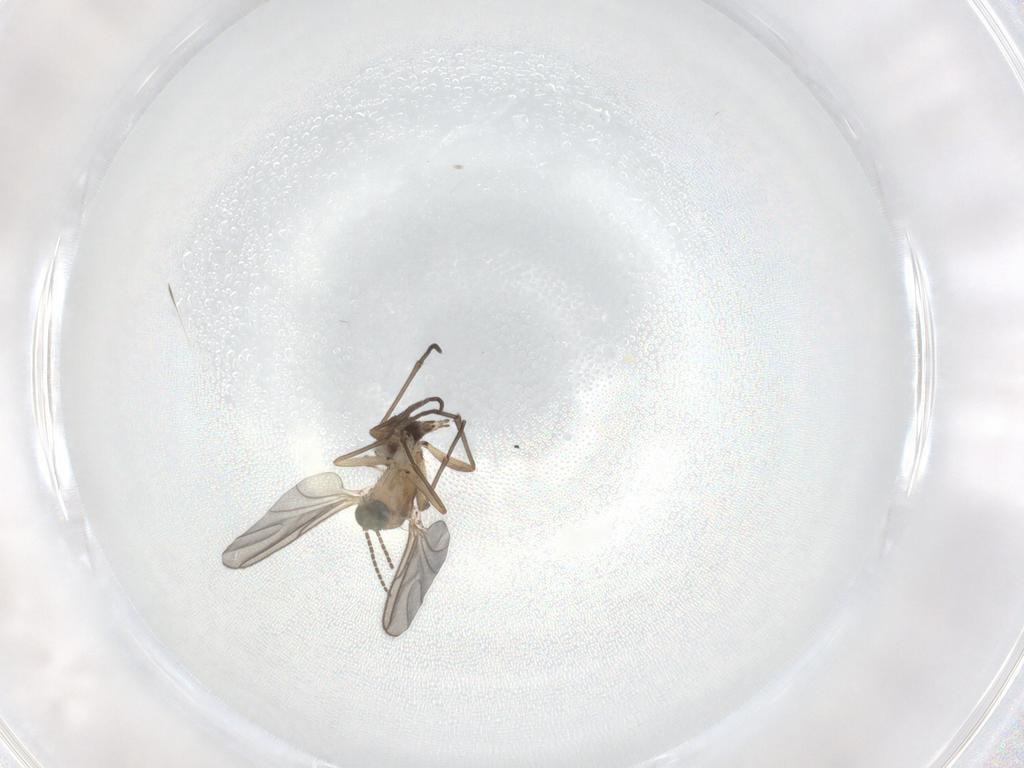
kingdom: Animalia
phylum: Arthropoda
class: Insecta
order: Diptera
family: Sciaridae
